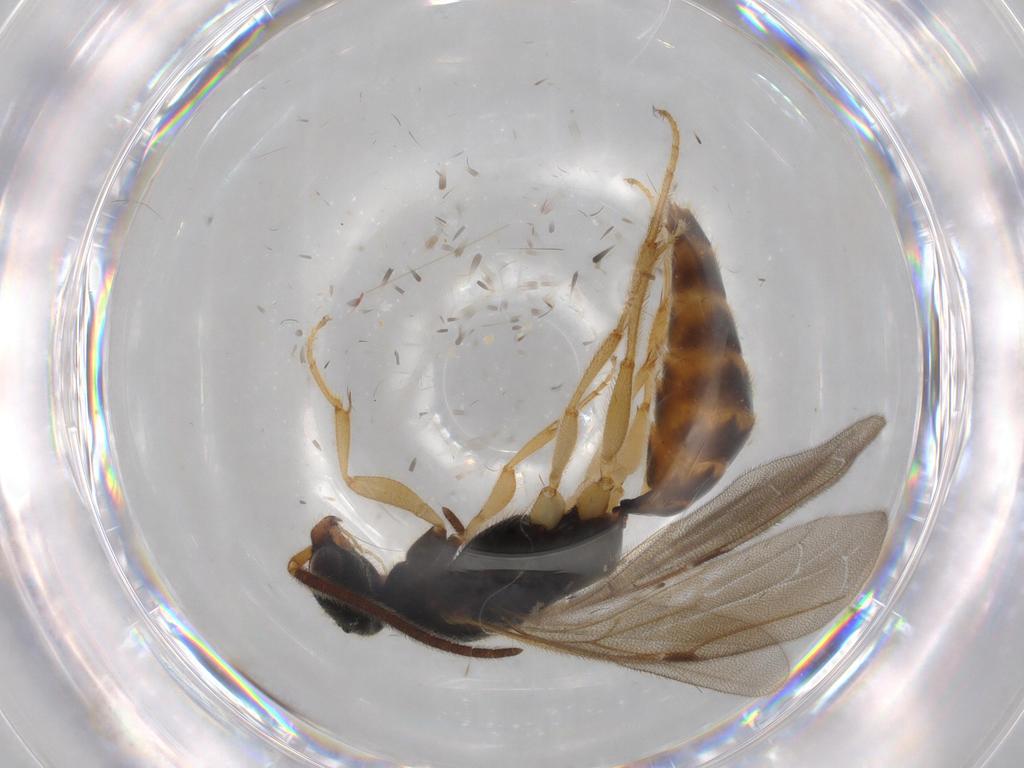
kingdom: Animalia
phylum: Arthropoda
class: Insecta
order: Hymenoptera
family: Bethylidae
